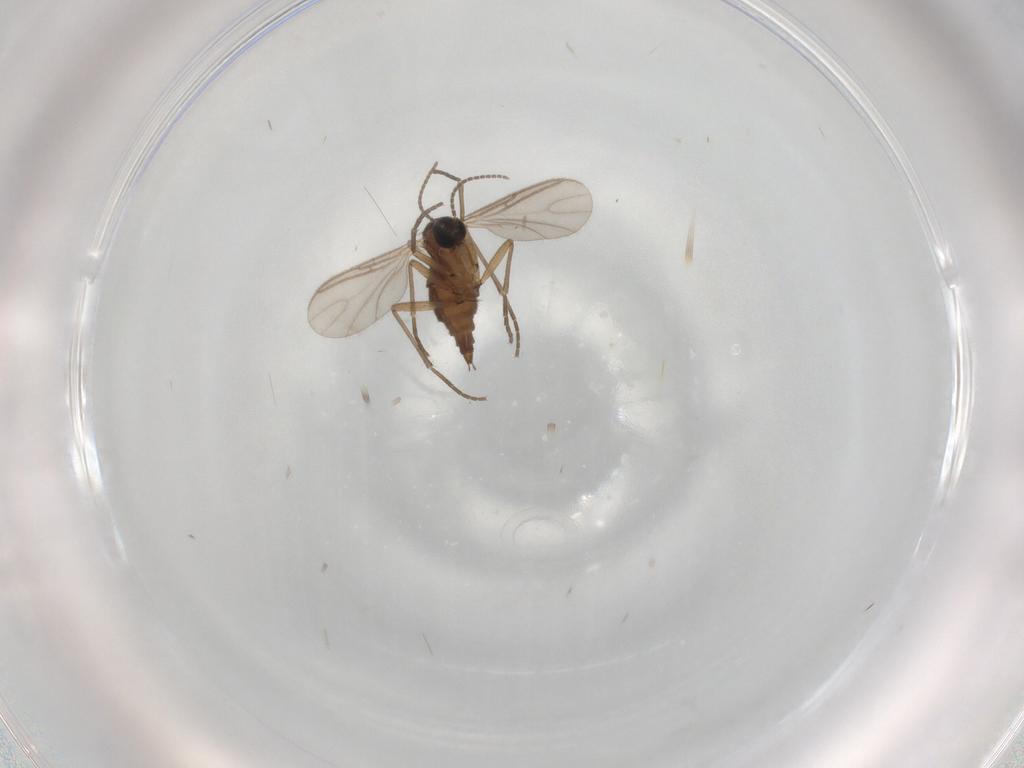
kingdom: Animalia
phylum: Arthropoda
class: Insecta
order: Diptera
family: Sciaridae
